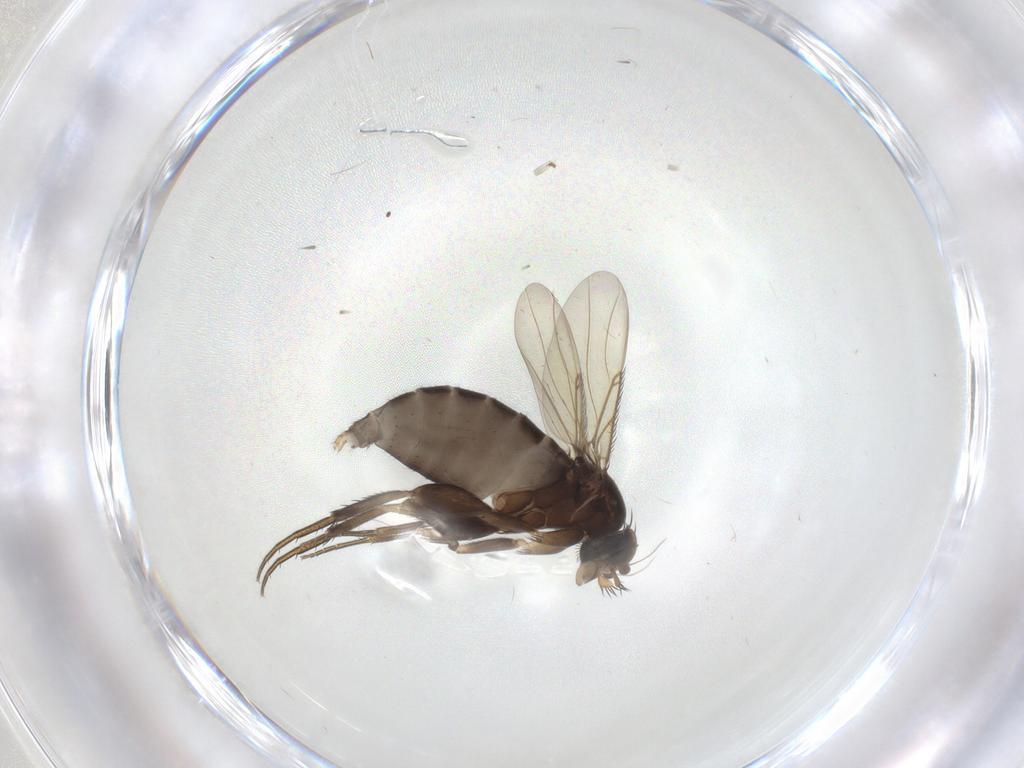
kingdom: Animalia
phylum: Arthropoda
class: Insecta
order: Diptera
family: Phoridae
